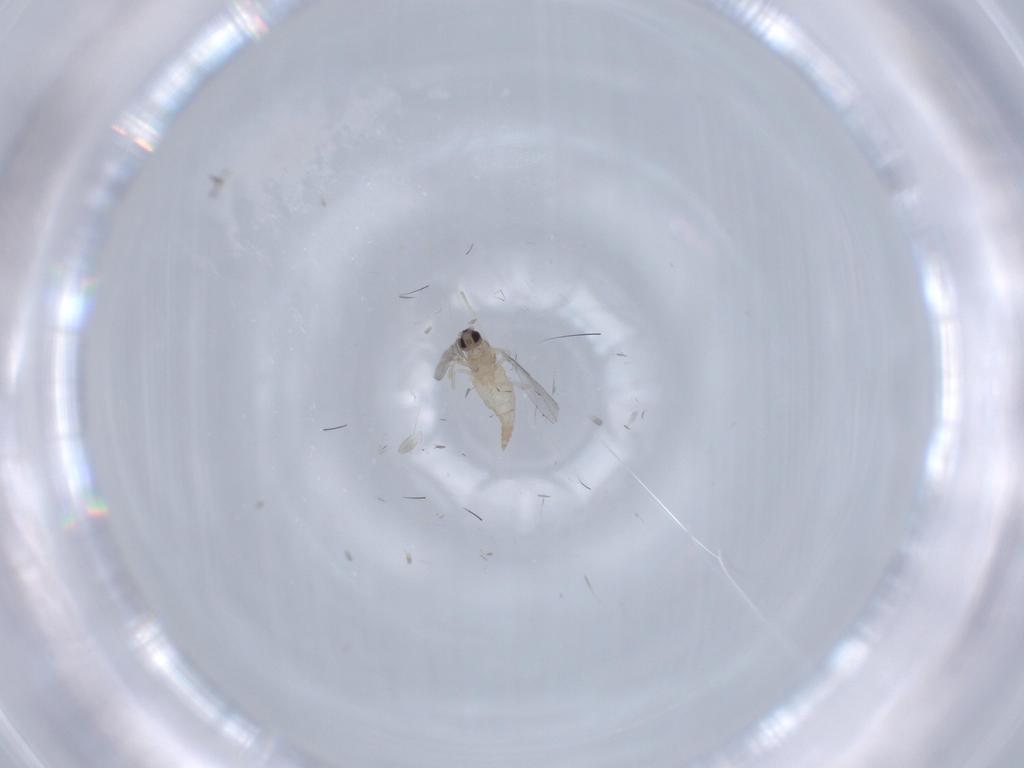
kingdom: Animalia
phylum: Arthropoda
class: Insecta
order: Diptera
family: Cecidomyiidae
